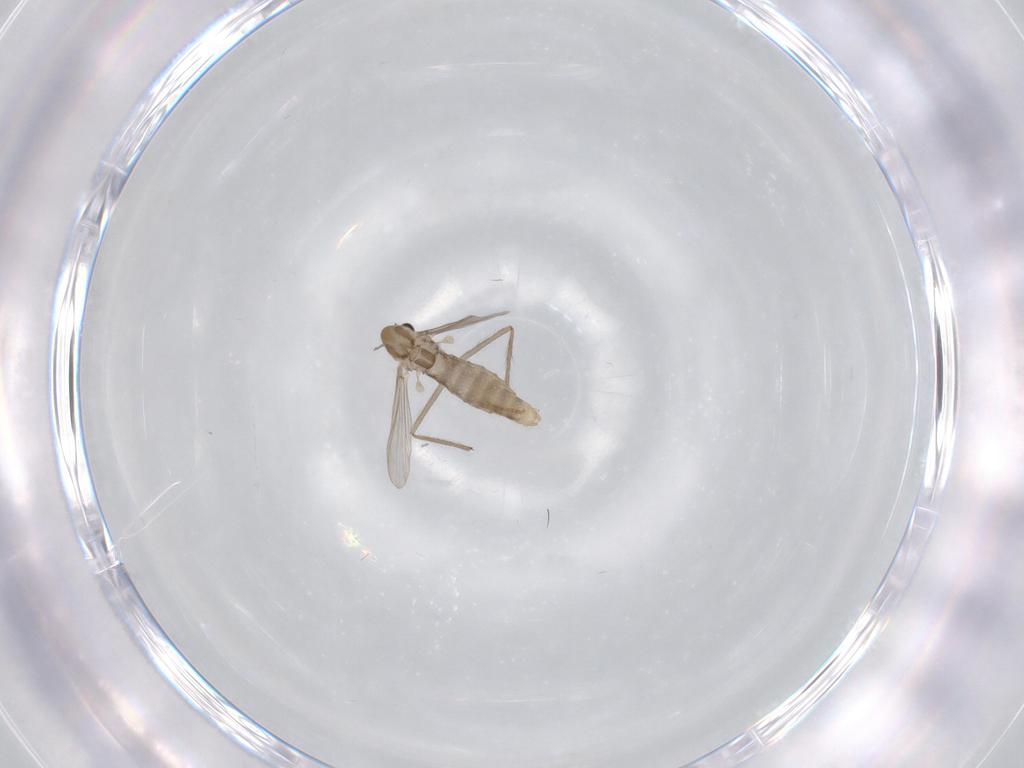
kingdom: Animalia
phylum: Arthropoda
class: Insecta
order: Diptera
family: Chironomidae
